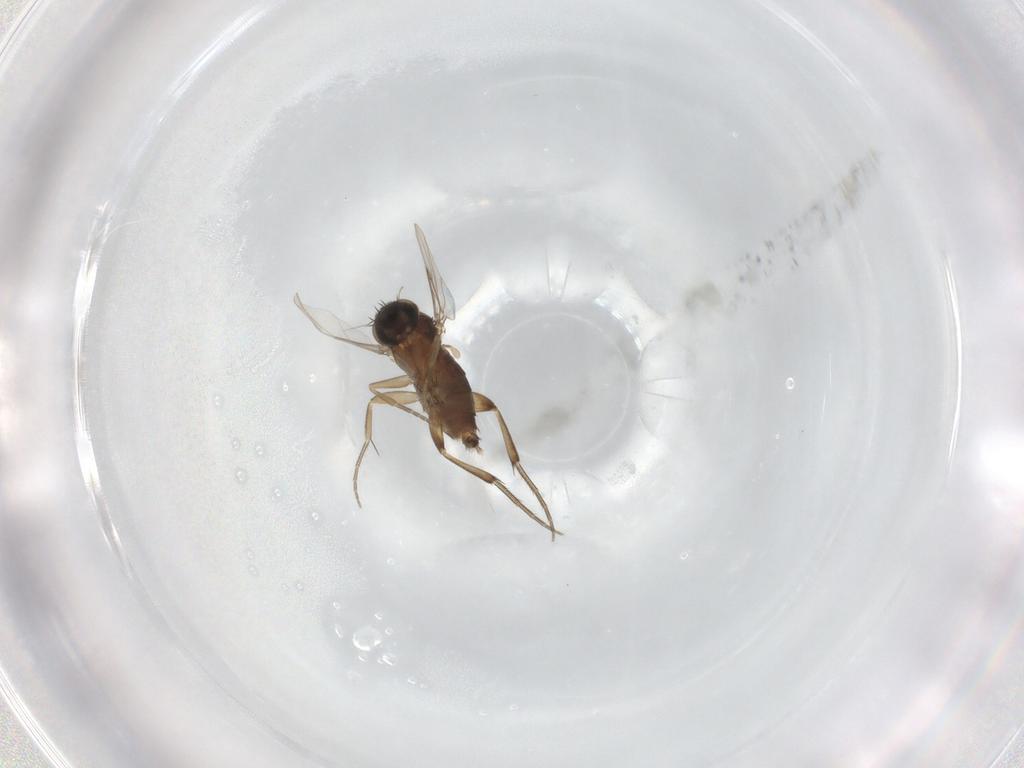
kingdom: Animalia
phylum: Arthropoda
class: Insecta
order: Diptera
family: Phoridae
